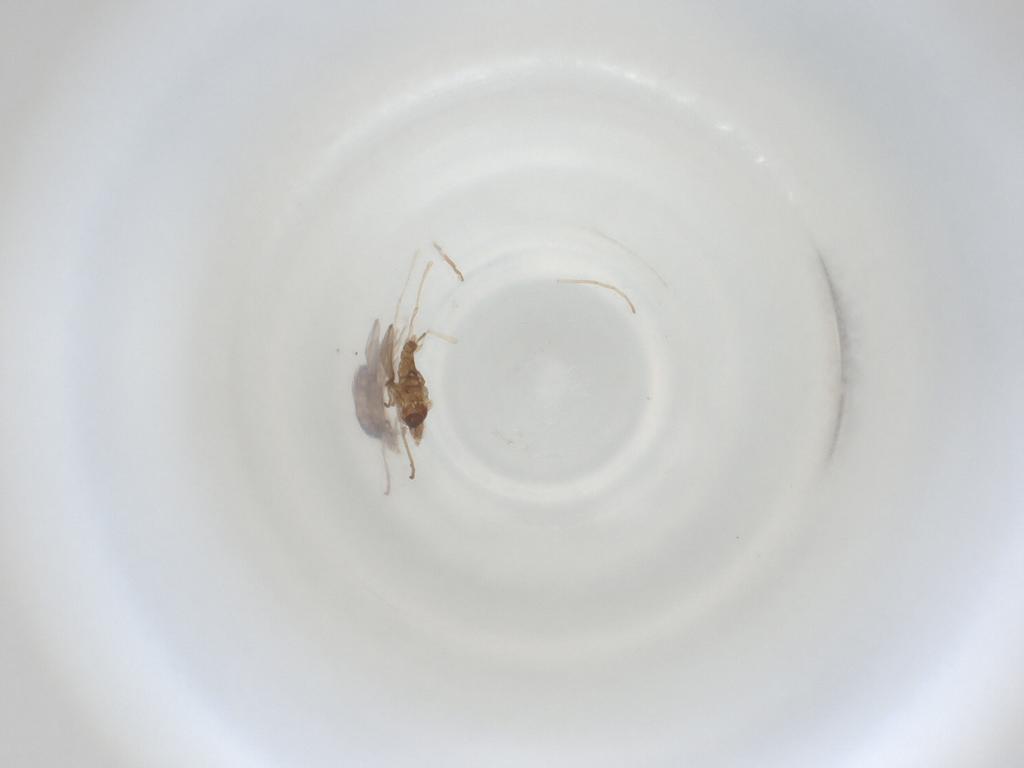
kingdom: Animalia
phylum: Arthropoda
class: Insecta
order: Diptera
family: Cecidomyiidae
